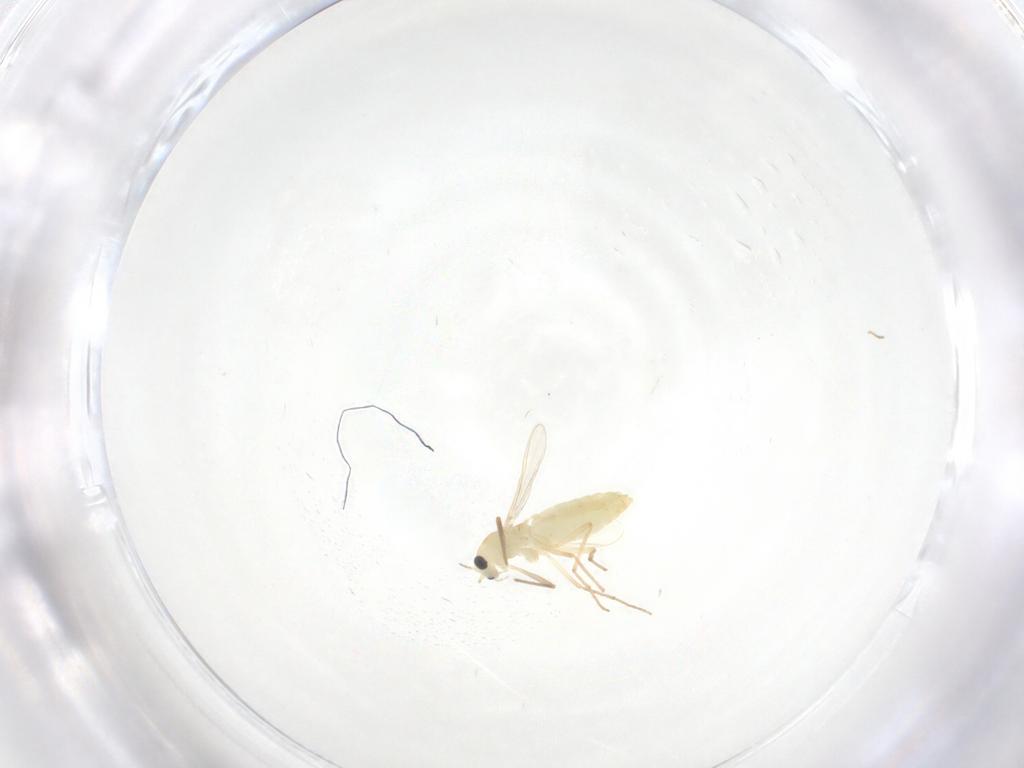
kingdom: Animalia
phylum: Arthropoda
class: Insecta
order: Diptera
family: Chironomidae
